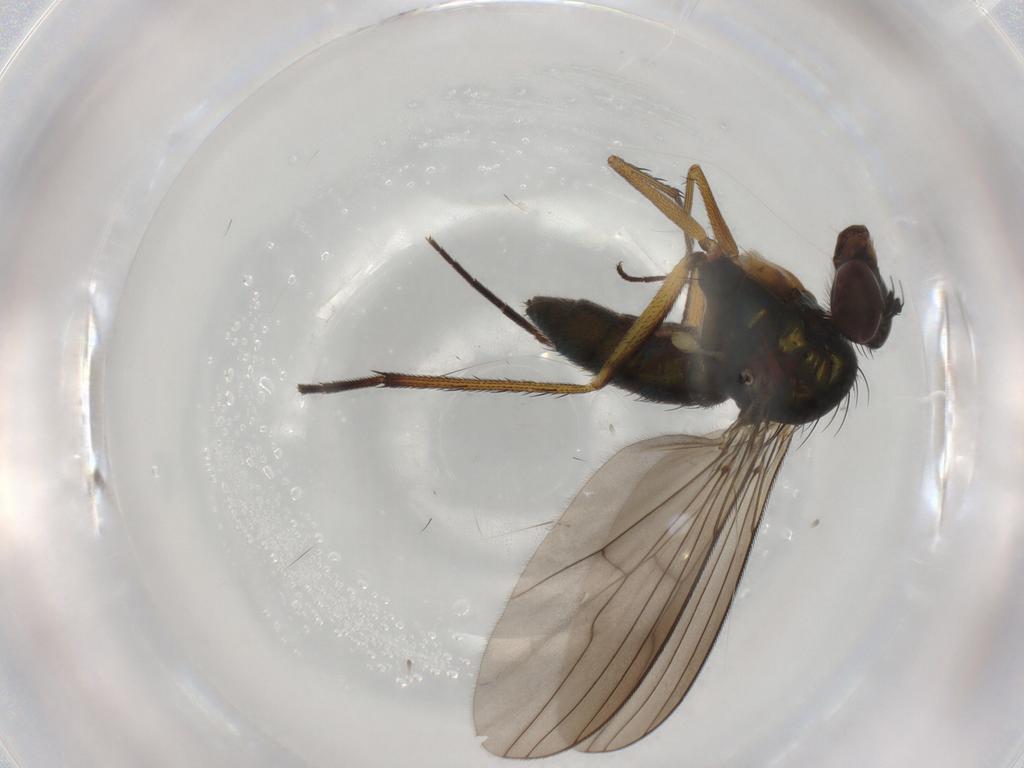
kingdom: Animalia
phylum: Arthropoda
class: Insecta
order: Diptera
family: Dolichopodidae
